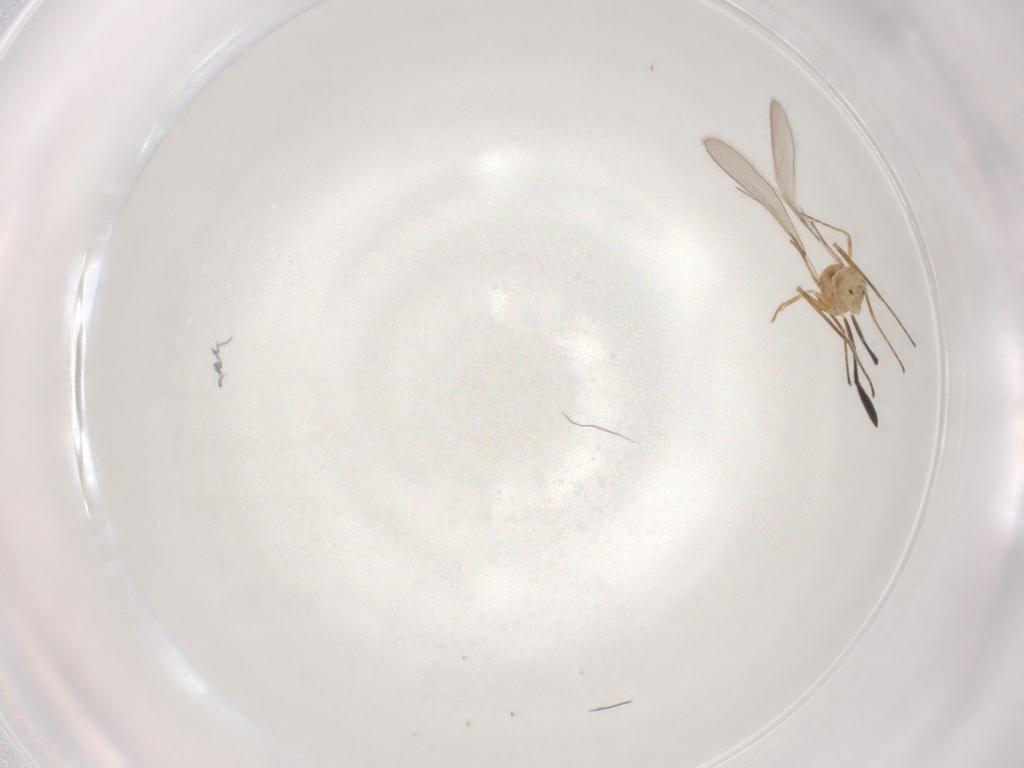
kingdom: Animalia
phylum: Arthropoda
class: Insecta
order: Hymenoptera
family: Mymaridae
